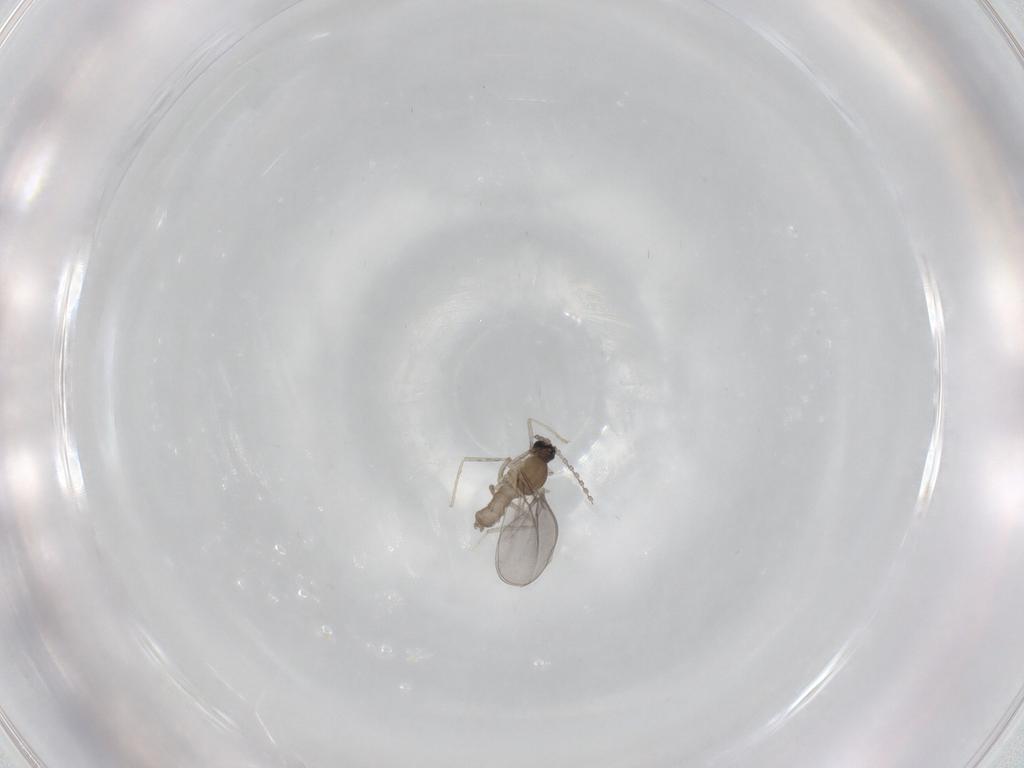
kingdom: Animalia
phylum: Arthropoda
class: Insecta
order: Diptera
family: Cecidomyiidae
